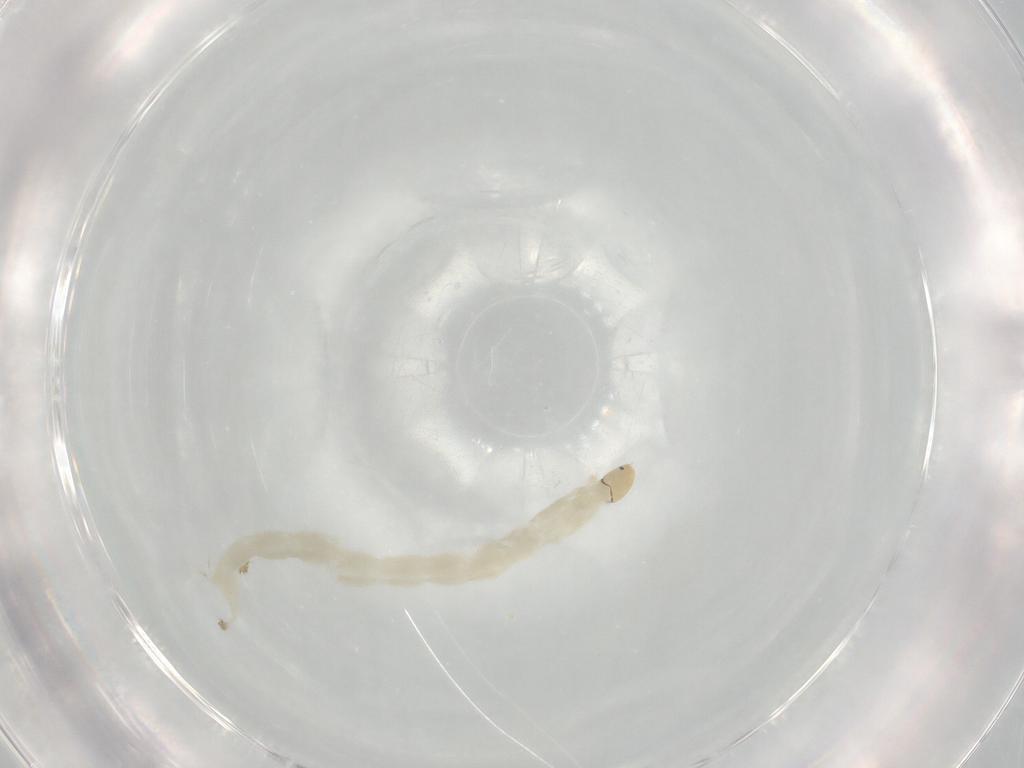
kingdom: Animalia
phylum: Arthropoda
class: Insecta
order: Diptera
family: Chironomidae
